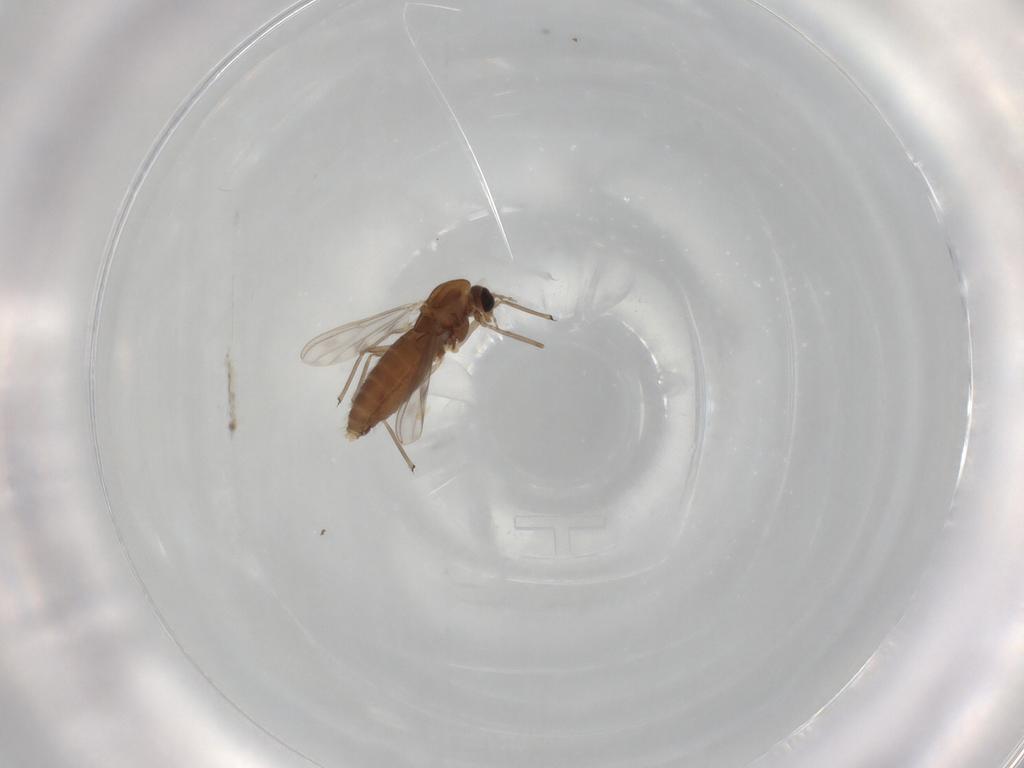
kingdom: Animalia
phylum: Arthropoda
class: Insecta
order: Diptera
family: Chironomidae
